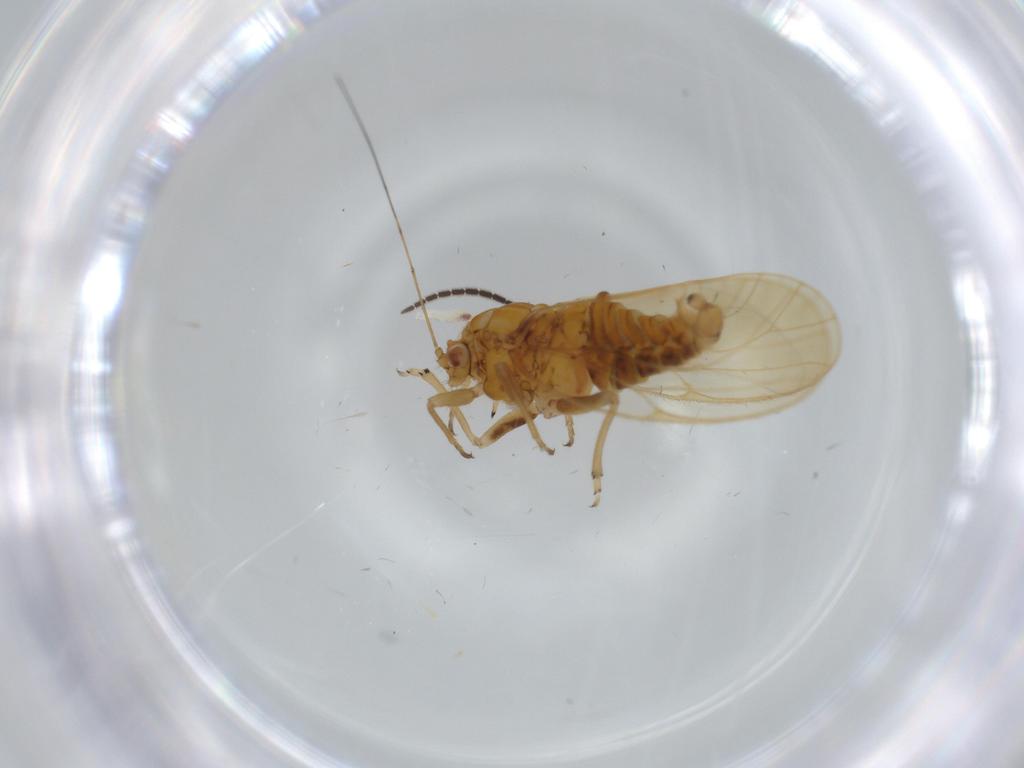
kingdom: Animalia
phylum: Arthropoda
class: Insecta
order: Hemiptera
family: Psyllidae
